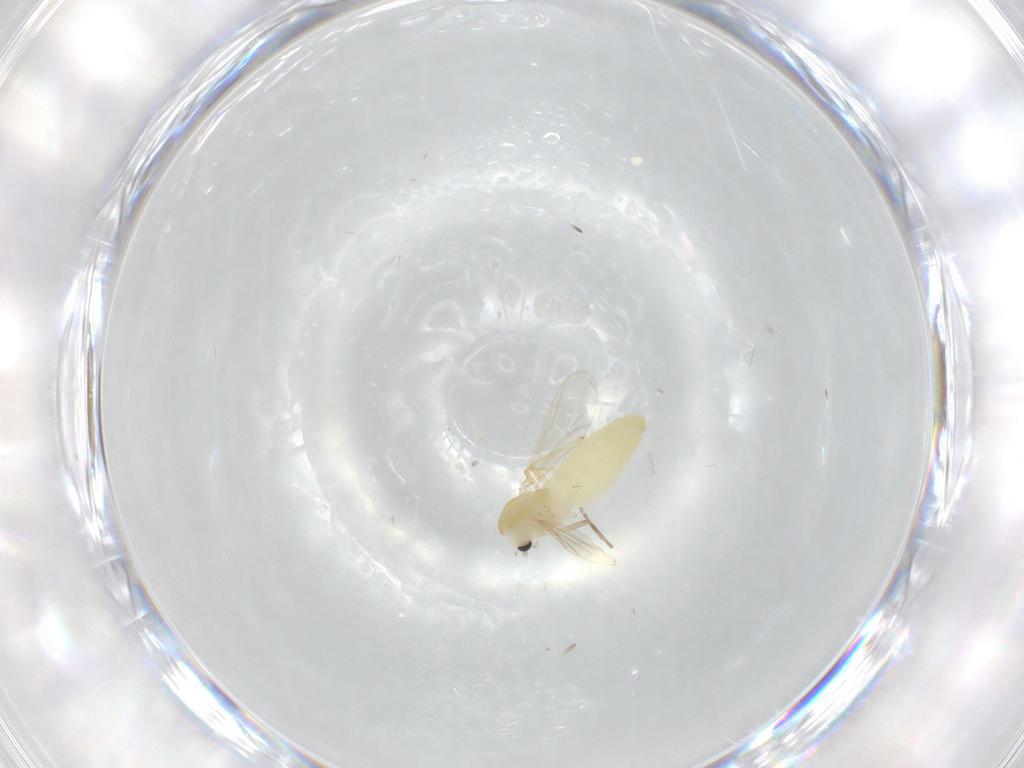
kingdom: Animalia
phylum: Arthropoda
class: Insecta
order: Diptera
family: Chironomidae
